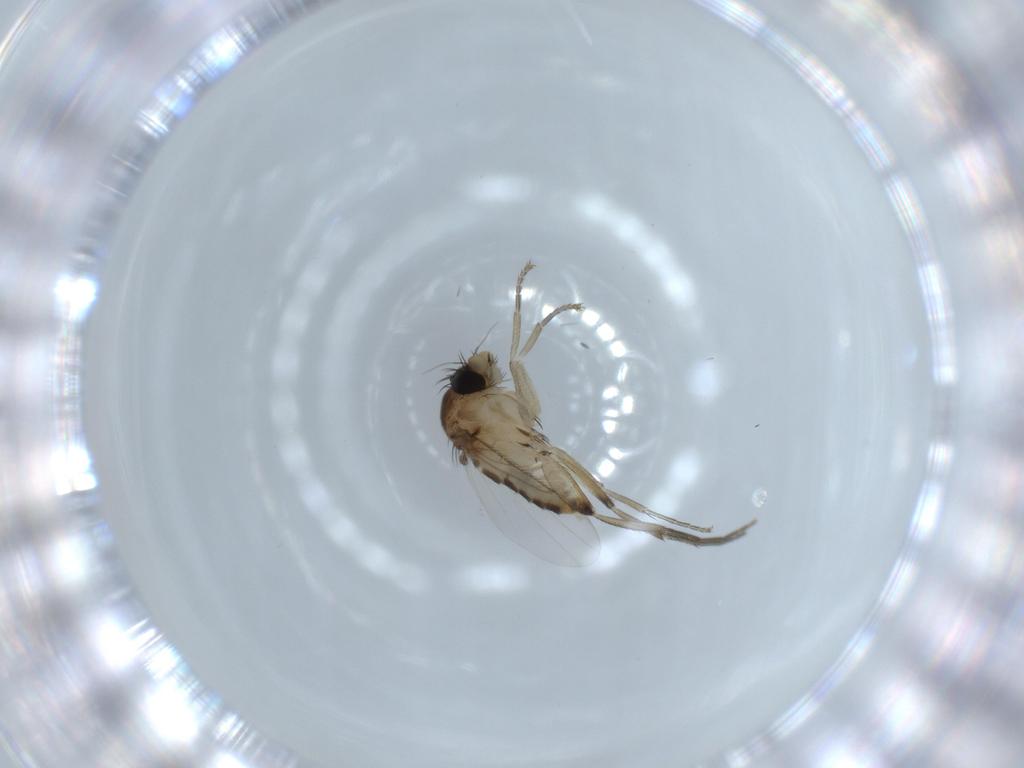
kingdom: Animalia
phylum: Arthropoda
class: Insecta
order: Diptera
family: Phoridae
